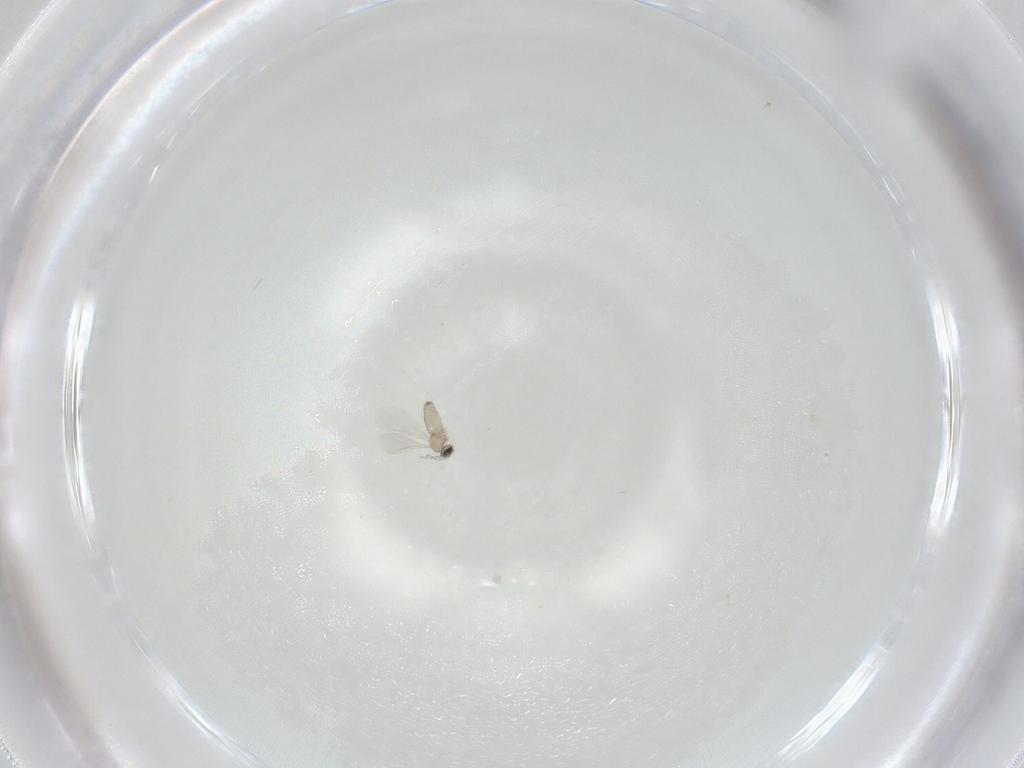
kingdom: Animalia
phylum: Arthropoda
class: Insecta
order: Diptera
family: Cecidomyiidae
